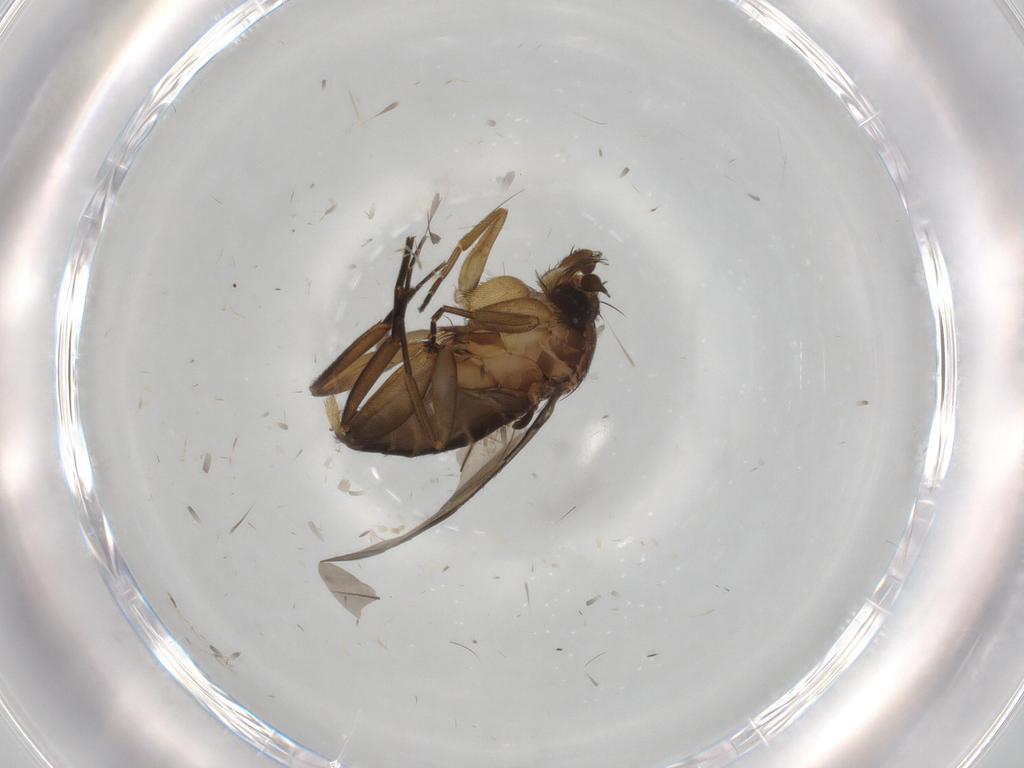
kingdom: Animalia
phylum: Arthropoda
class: Insecta
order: Diptera
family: Phoridae
